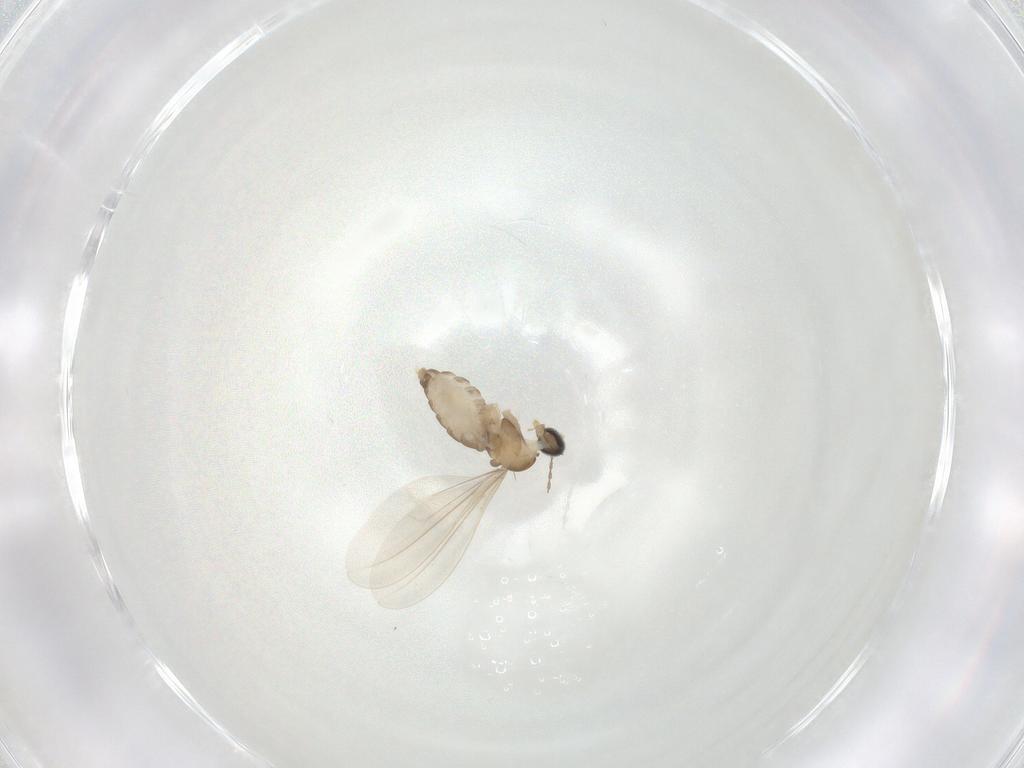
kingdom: Animalia
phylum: Arthropoda
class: Insecta
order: Diptera
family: Cecidomyiidae
